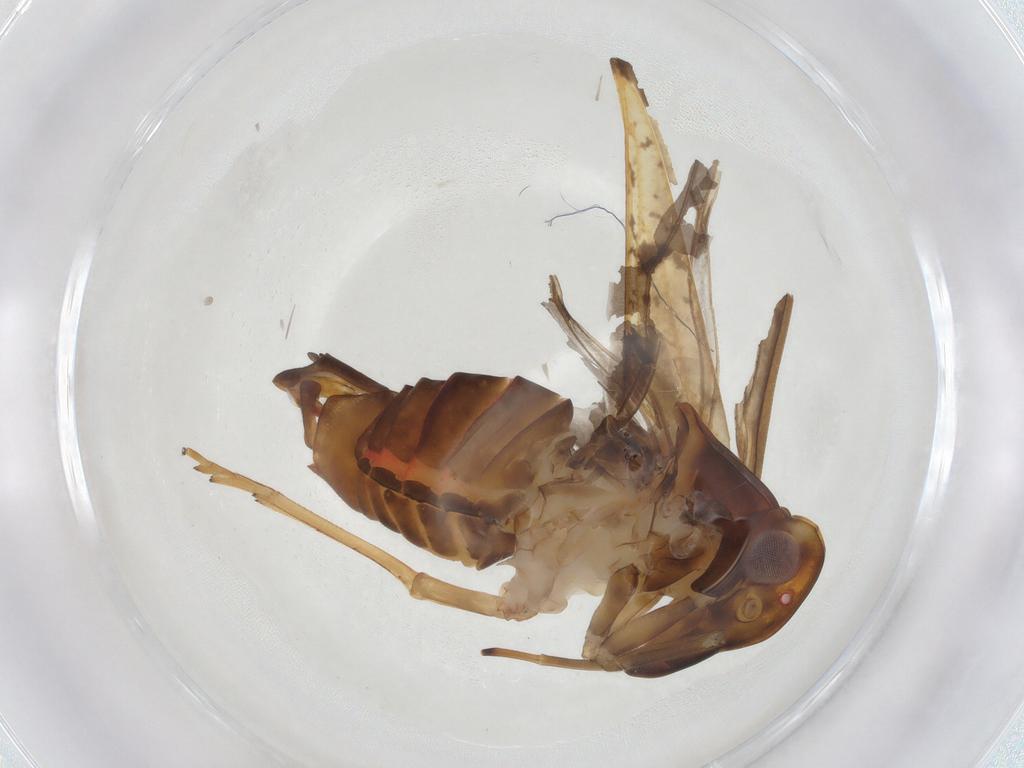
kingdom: Animalia
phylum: Arthropoda
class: Insecta
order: Hemiptera
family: Cixiidae
